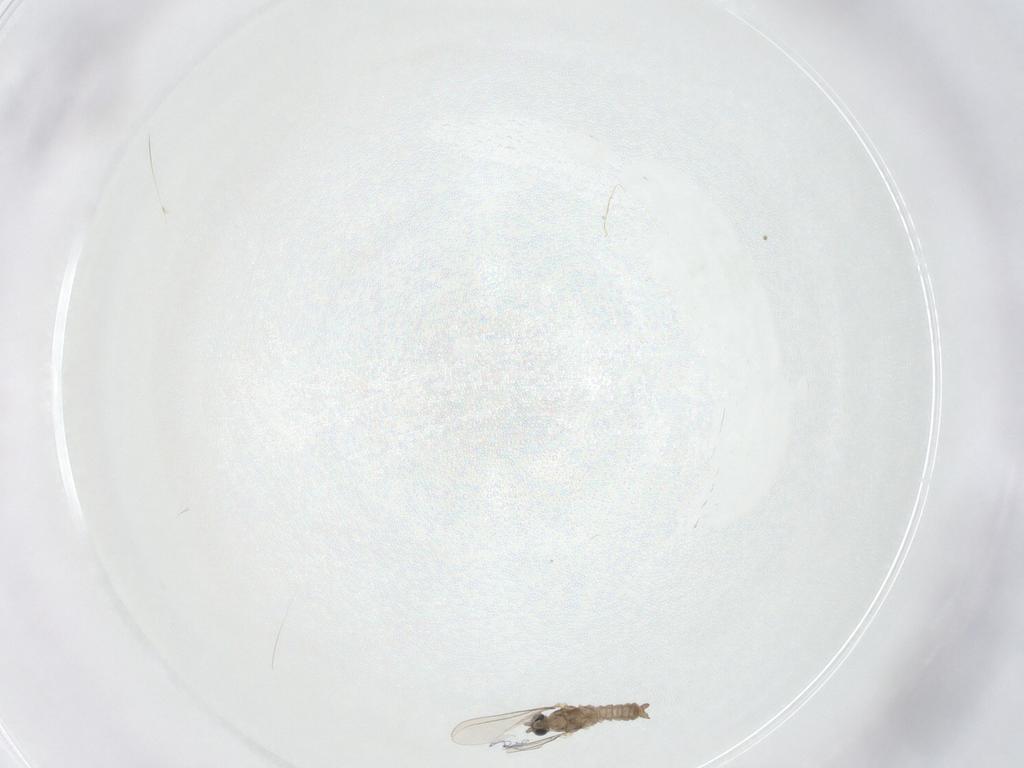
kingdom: Animalia
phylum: Arthropoda
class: Insecta
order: Diptera
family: Cecidomyiidae
